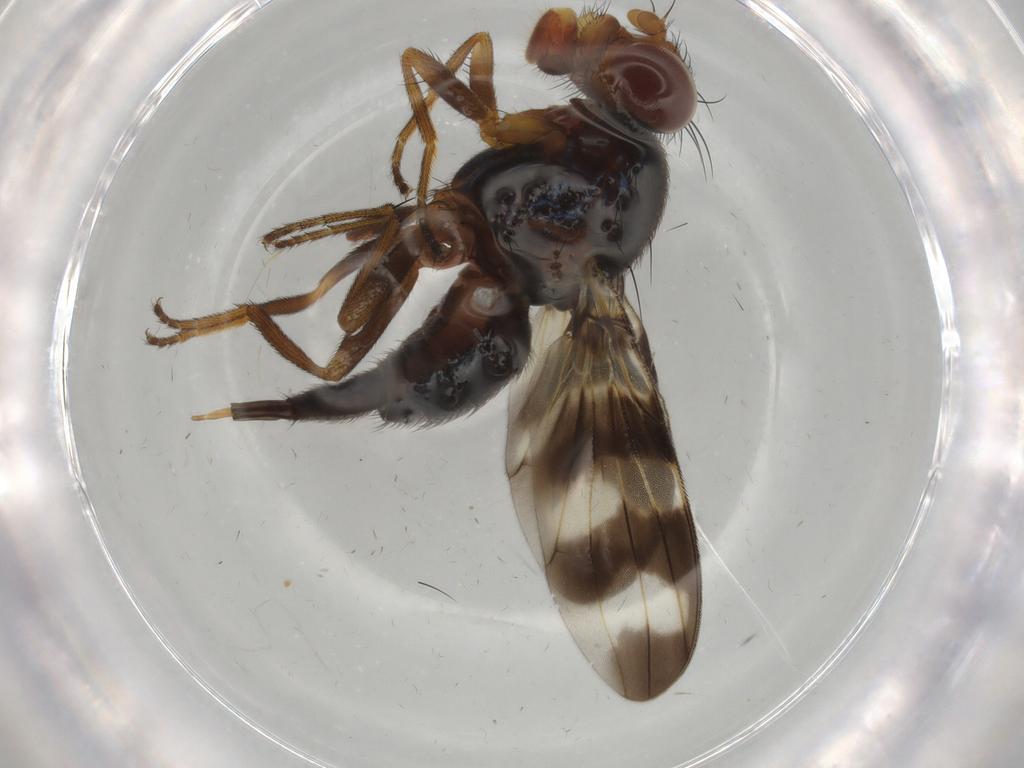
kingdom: Animalia
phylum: Arthropoda
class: Insecta
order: Diptera
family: Ulidiidae
